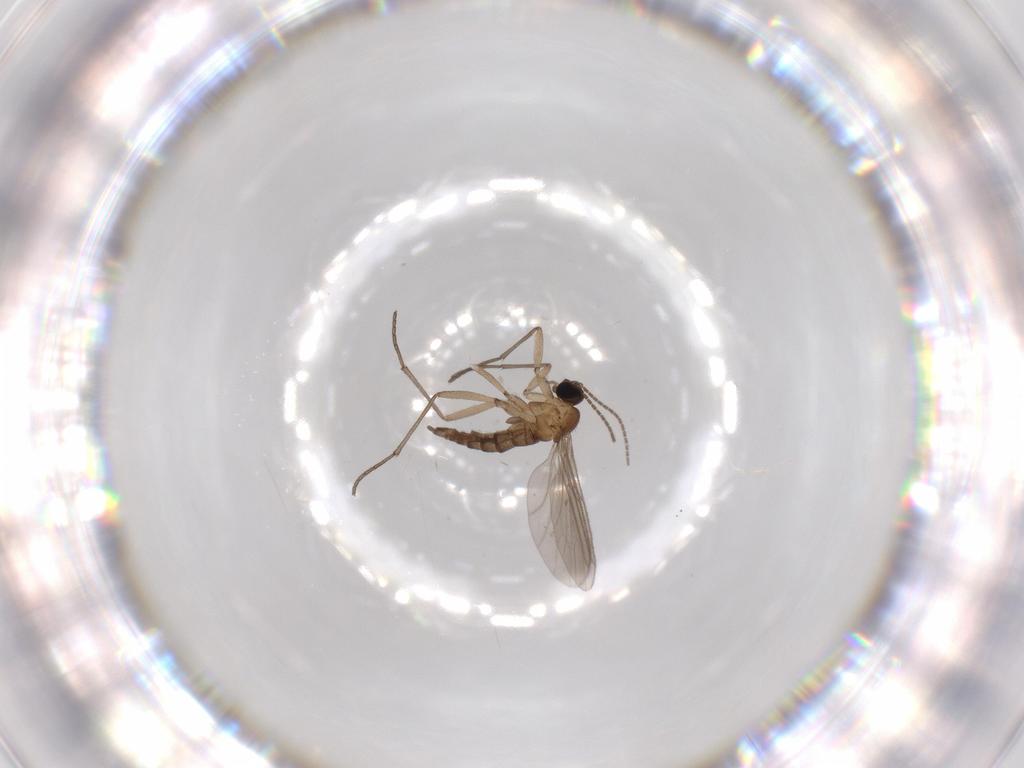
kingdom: Animalia
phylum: Arthropoda
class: Insecta
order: Diptera
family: Cecidomyiidae
